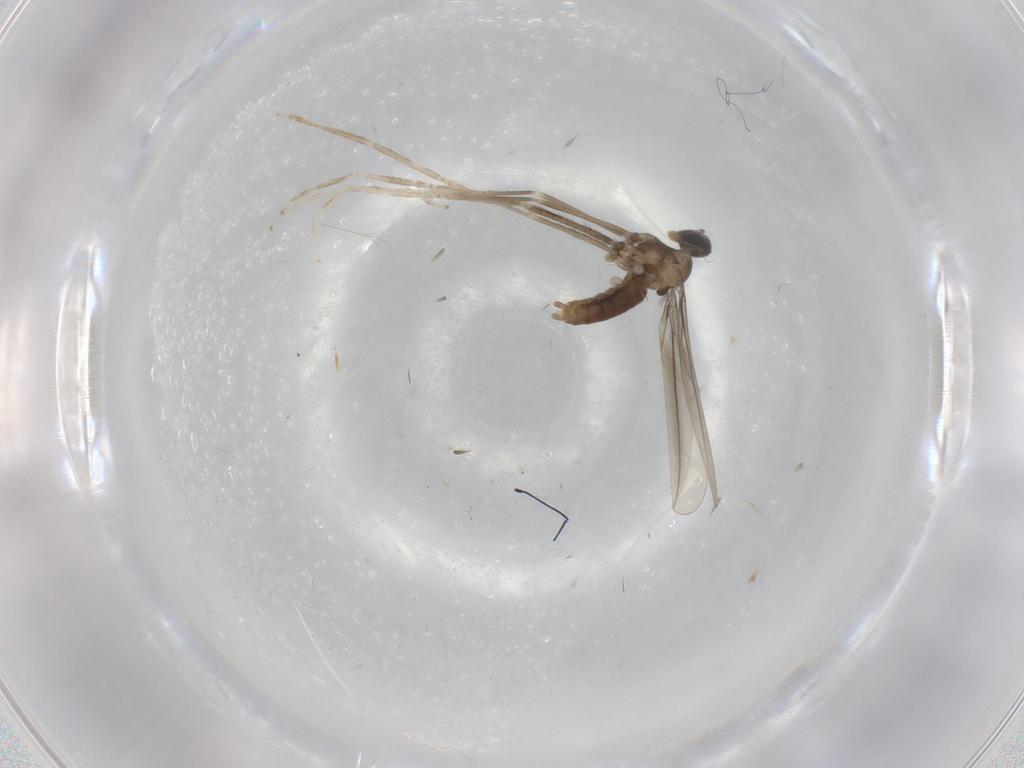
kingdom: Animalia
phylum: Arthropoda
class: Insecta
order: Diptera
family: Cecidomyiidae
